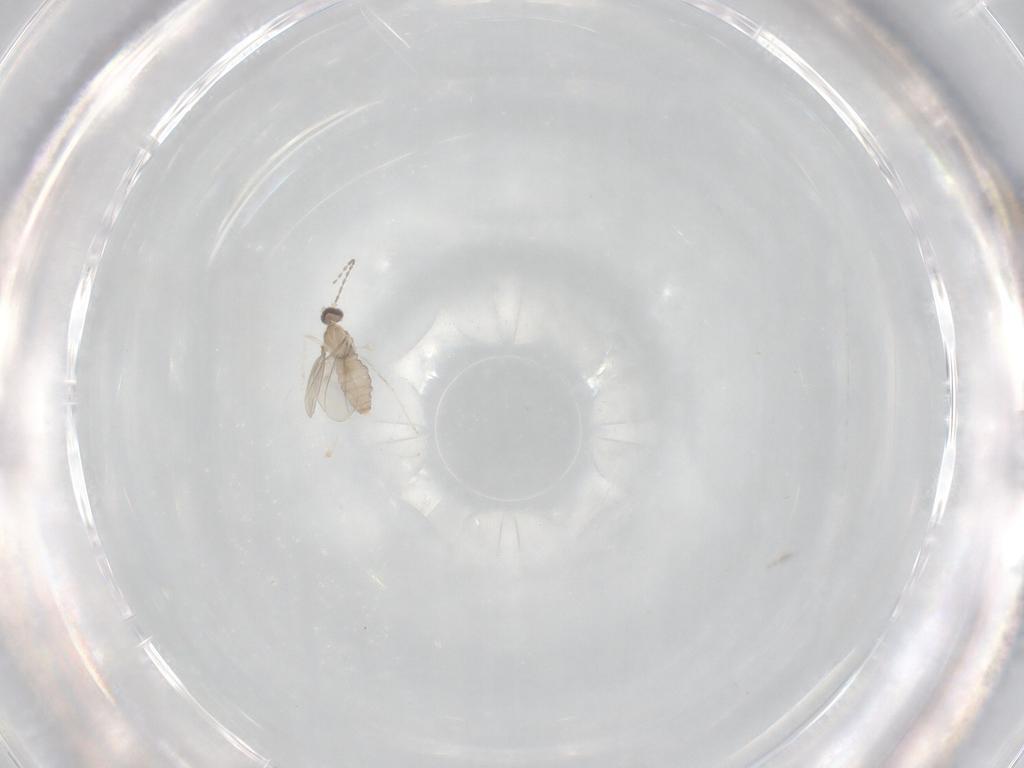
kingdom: Animalia
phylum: Arthropoda
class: Insecta
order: Diptera
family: Cecidomyiidae
